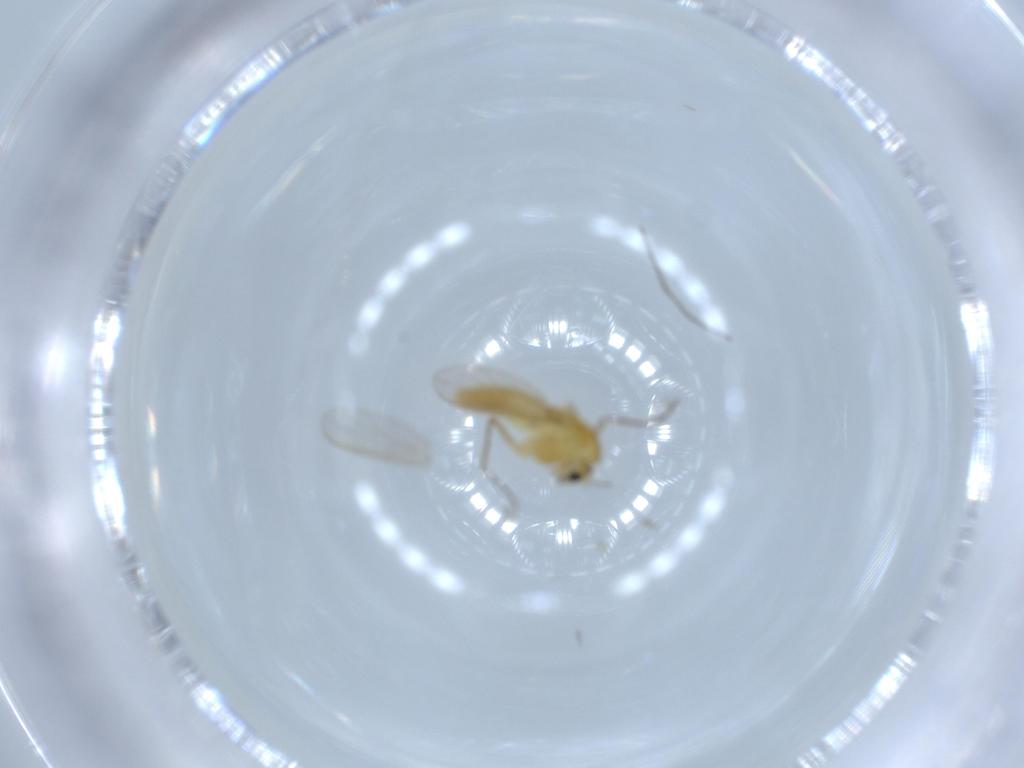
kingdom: Animalia
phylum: Arthropoda
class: Insecta
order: Diptera
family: Chironomidae
